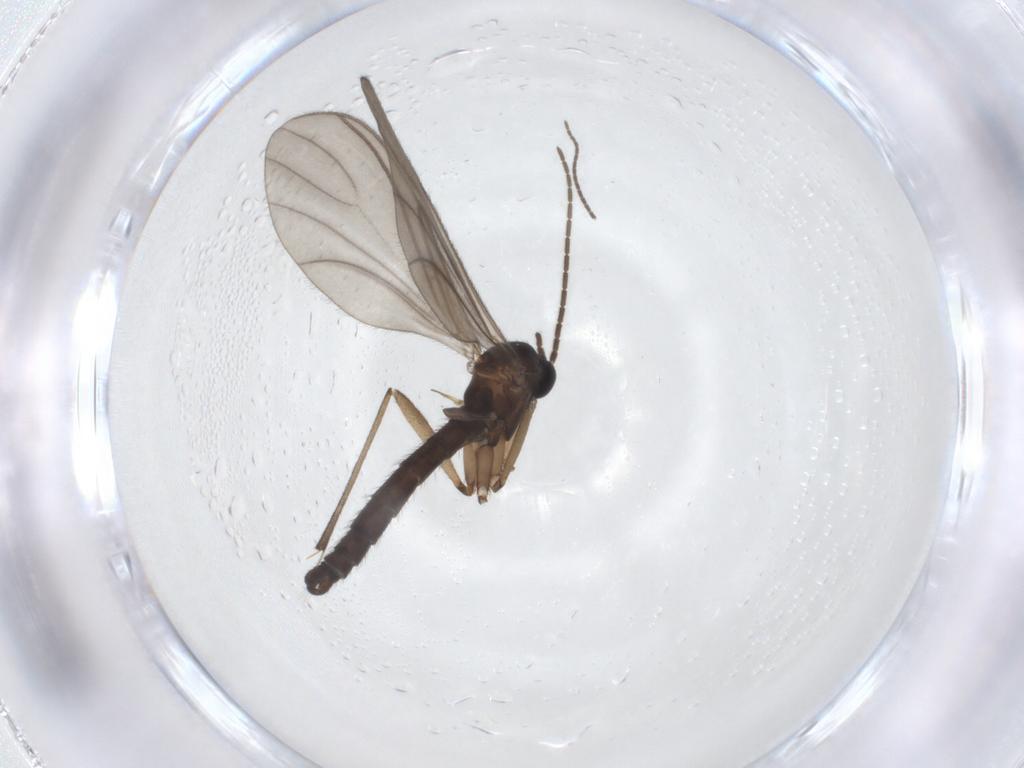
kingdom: Animalia
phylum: Arthropoda
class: Insecta
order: Diptera
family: Sciaridae
